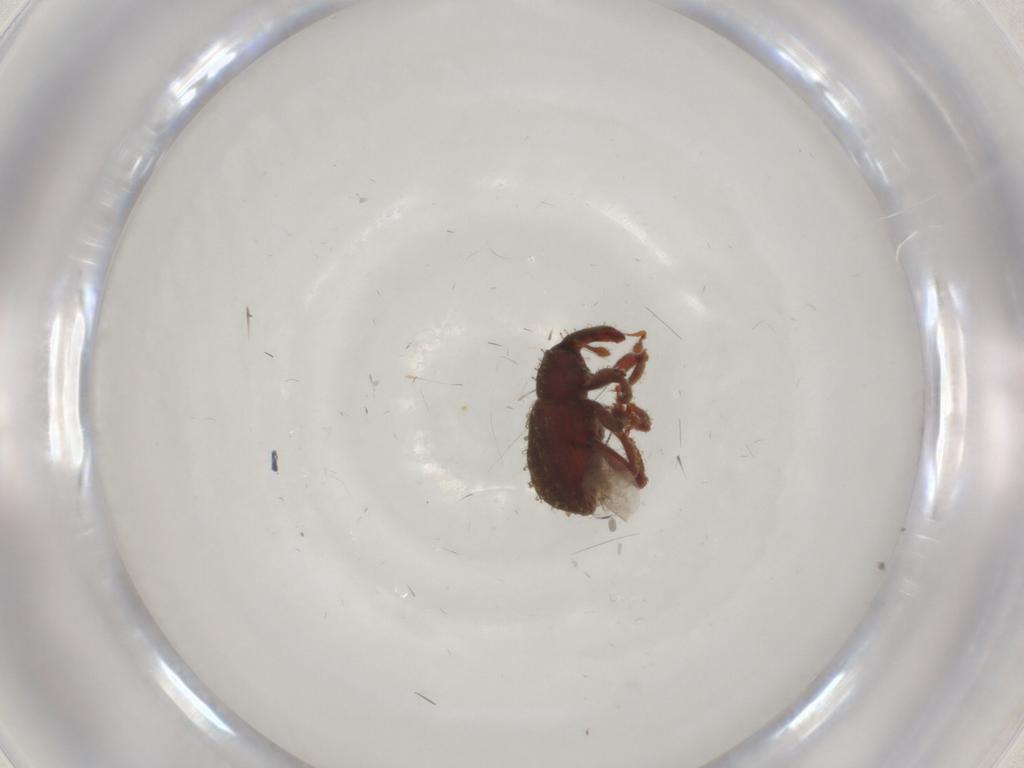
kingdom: Animalia
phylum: Arthropoda
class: Insecta
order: Coleoptera
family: Curculionidae
